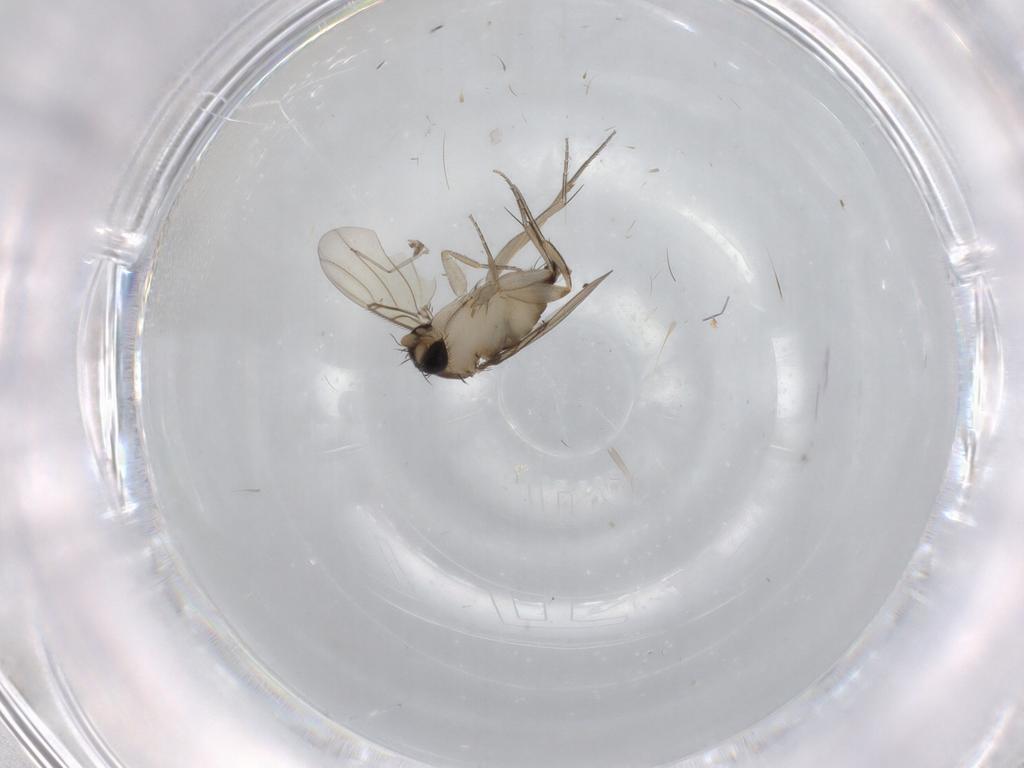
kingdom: Animalia
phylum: Arthropoda
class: Insecta
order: Diptera
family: Phoridae
